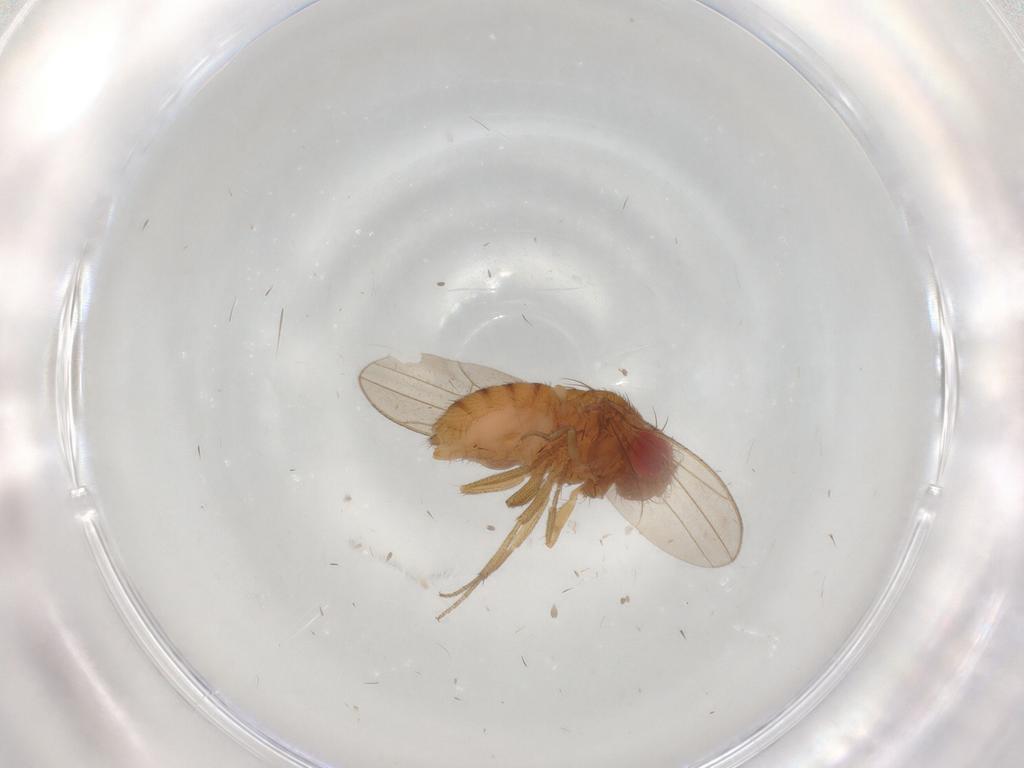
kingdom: Animalia
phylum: Arthropoda
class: Insecta
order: Diptera
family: Drosophilidae
